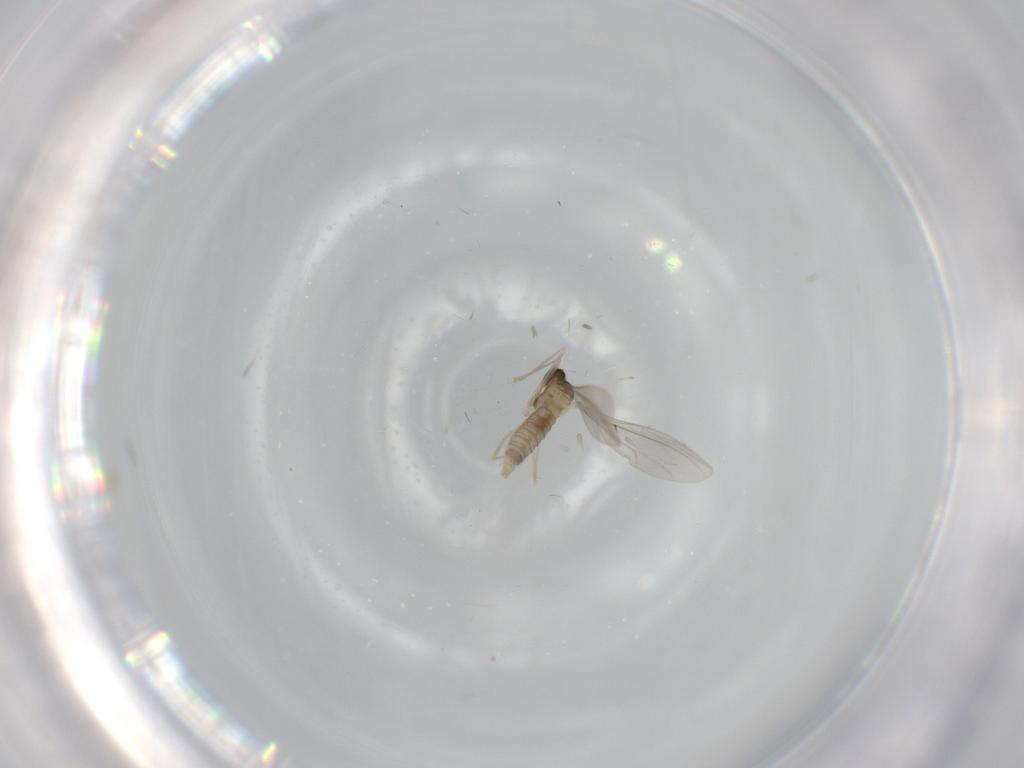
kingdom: Animalia
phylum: Arthropoda
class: Insecta
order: Diptera
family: Cecidomyiidae
